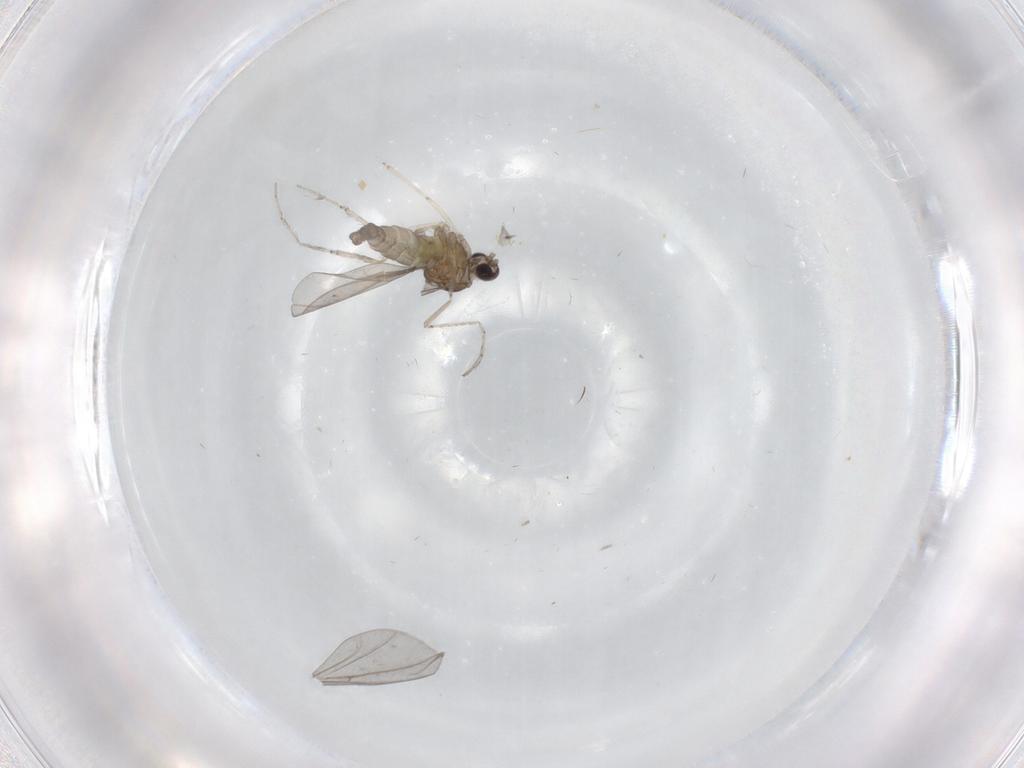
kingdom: Animalia
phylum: Arthropoda
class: Insecta
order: Diptera
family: Cecidomyiidae
